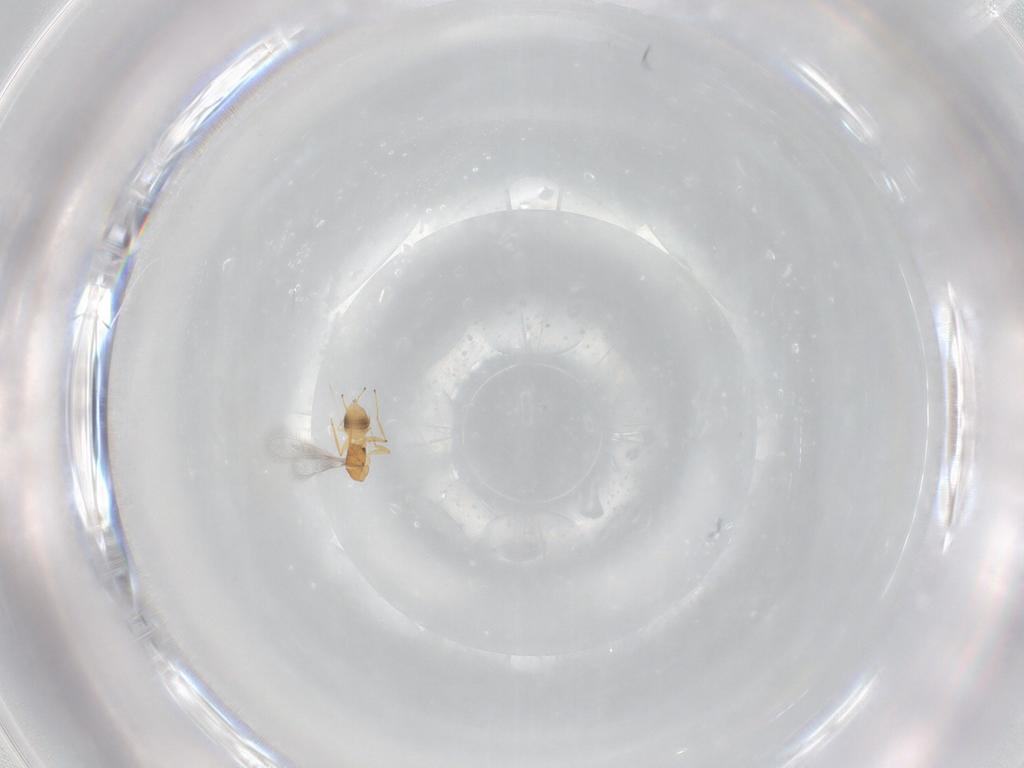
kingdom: Animalia
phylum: Arthropoda
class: Insecta
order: Hymenoptera
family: Mymaridae
